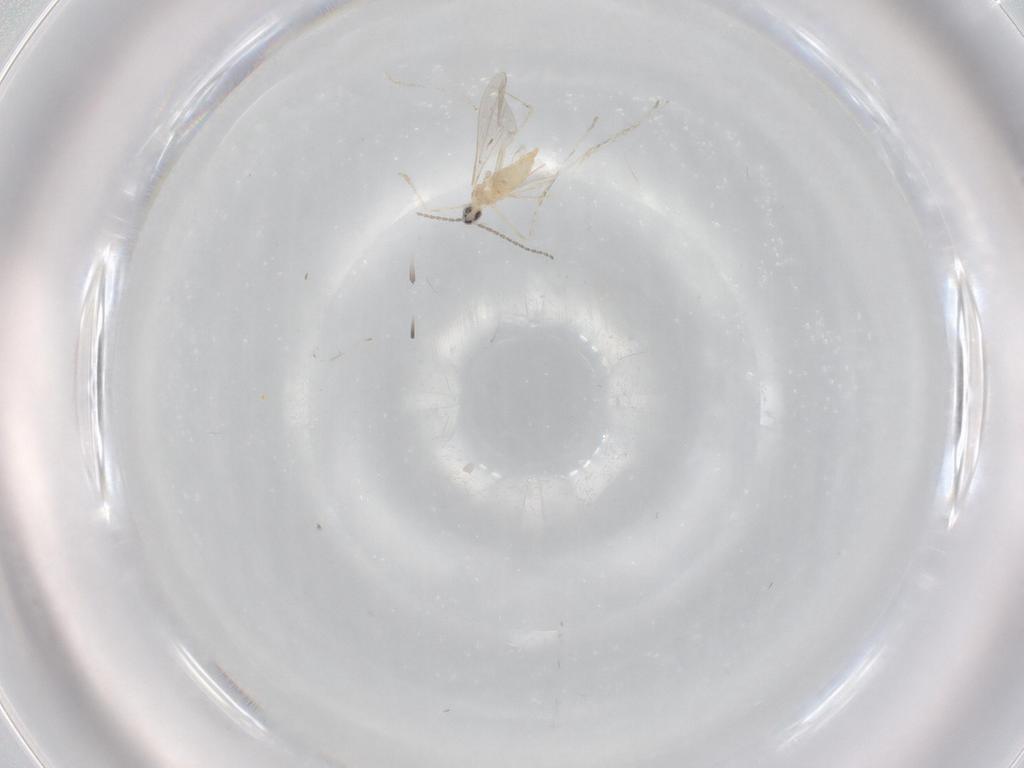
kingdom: Animalia
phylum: Arthropoda
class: Insecta
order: Diptera
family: Cecidomyiidae
